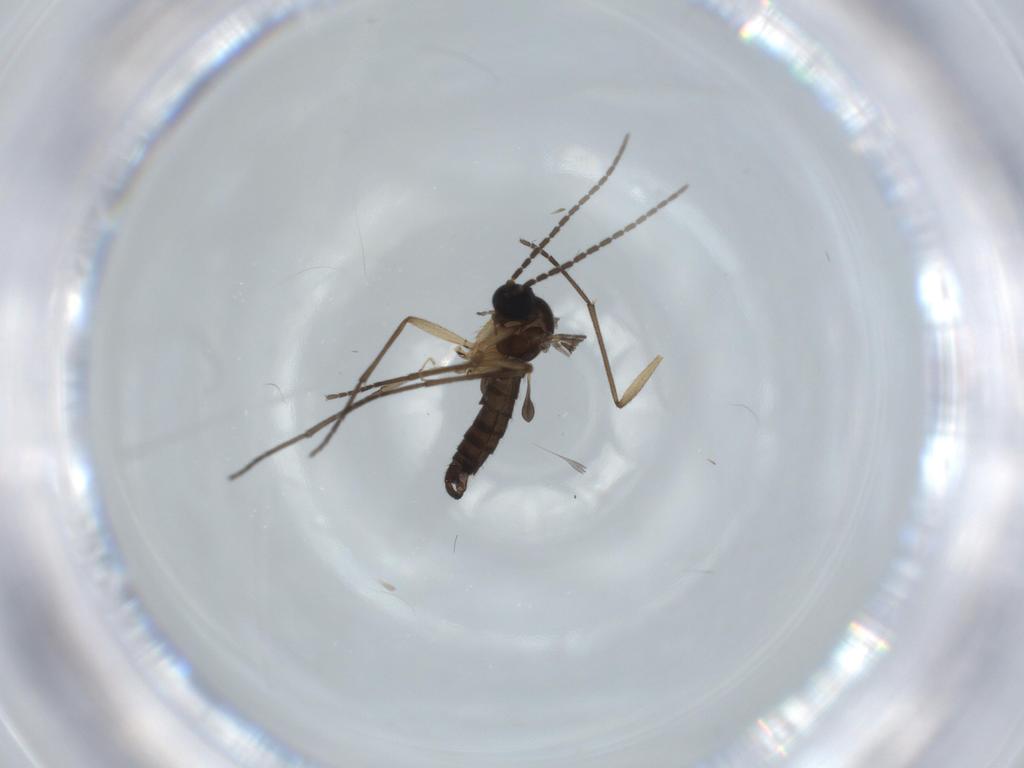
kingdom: Animalia
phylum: Arthropoda
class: Insecta
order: Diptera
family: Sciaridae
